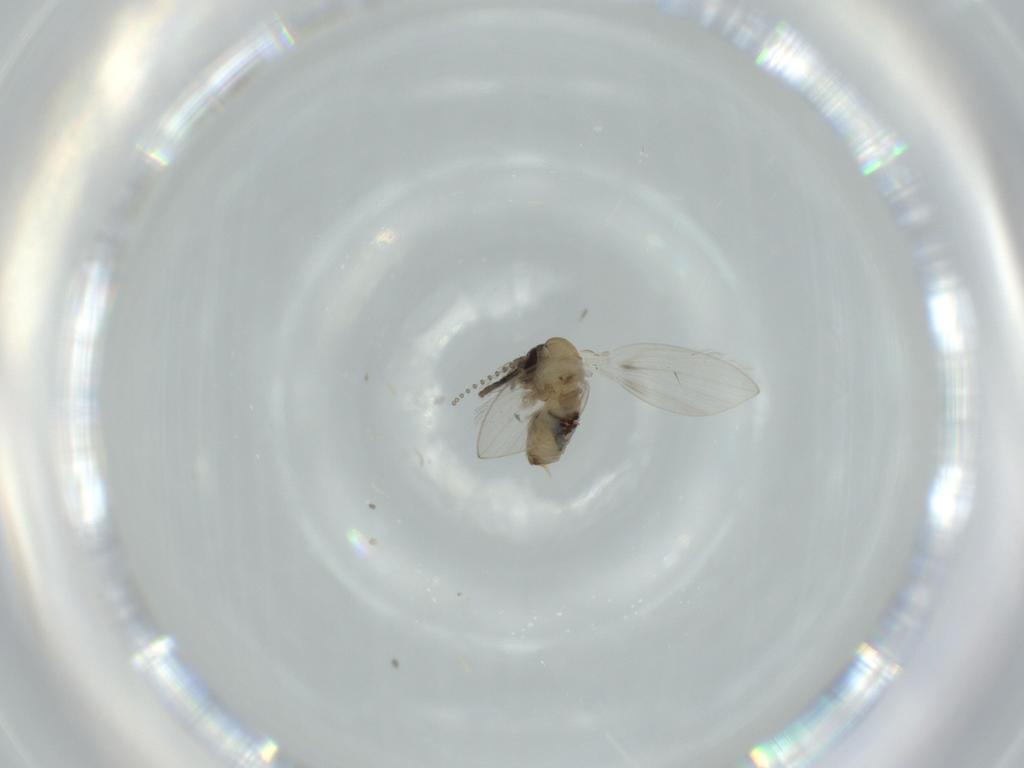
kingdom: Animalia
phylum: Arthropoda
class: Insecta
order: Diptera
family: Psychodidae
